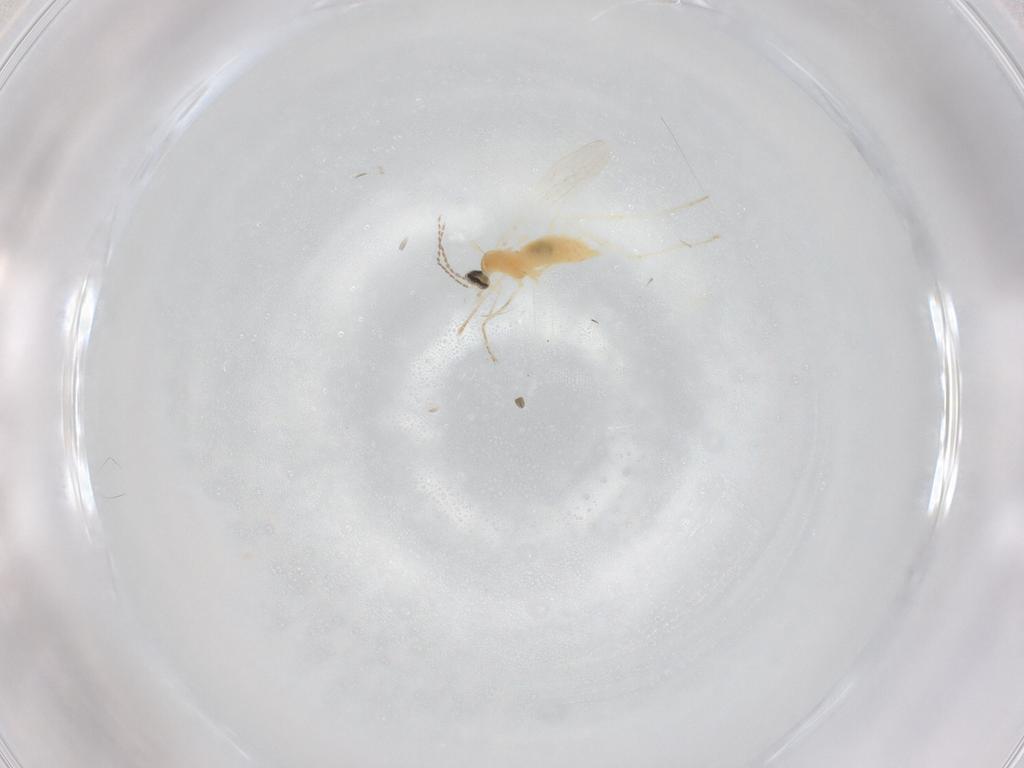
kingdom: Animalia
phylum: Arthropoda
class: Insecta
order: Diptera
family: Cecidomyiidae
